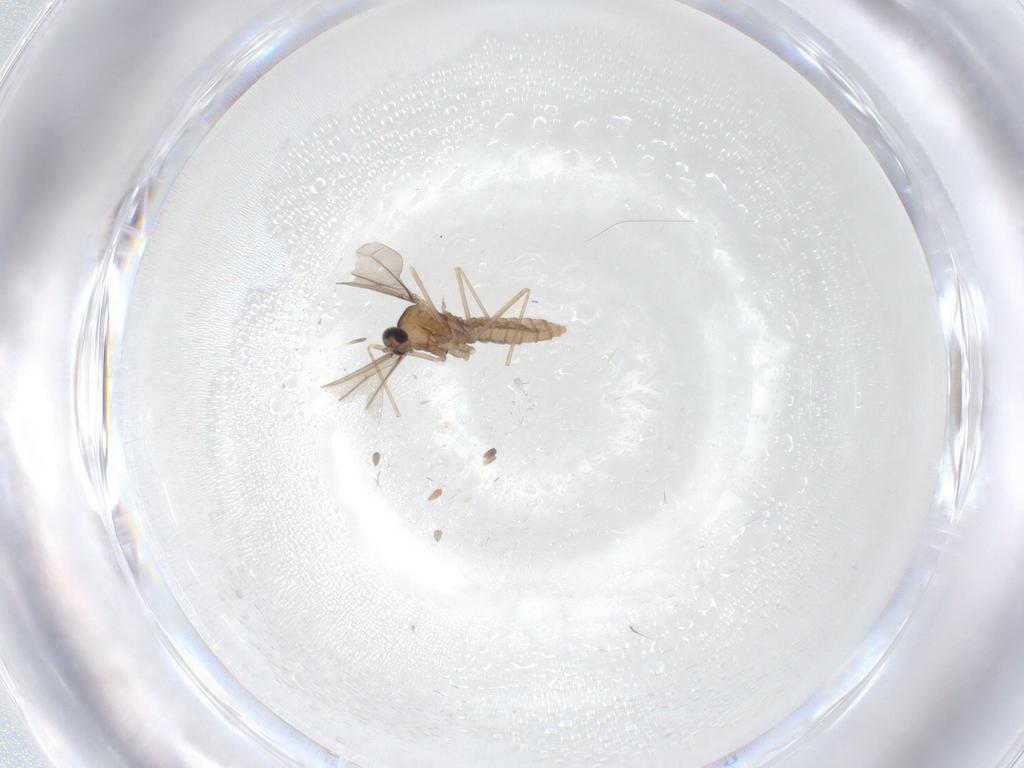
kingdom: Animalia
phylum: Arthropoda
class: Insecta
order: Diptera
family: Cecidomyiidae
